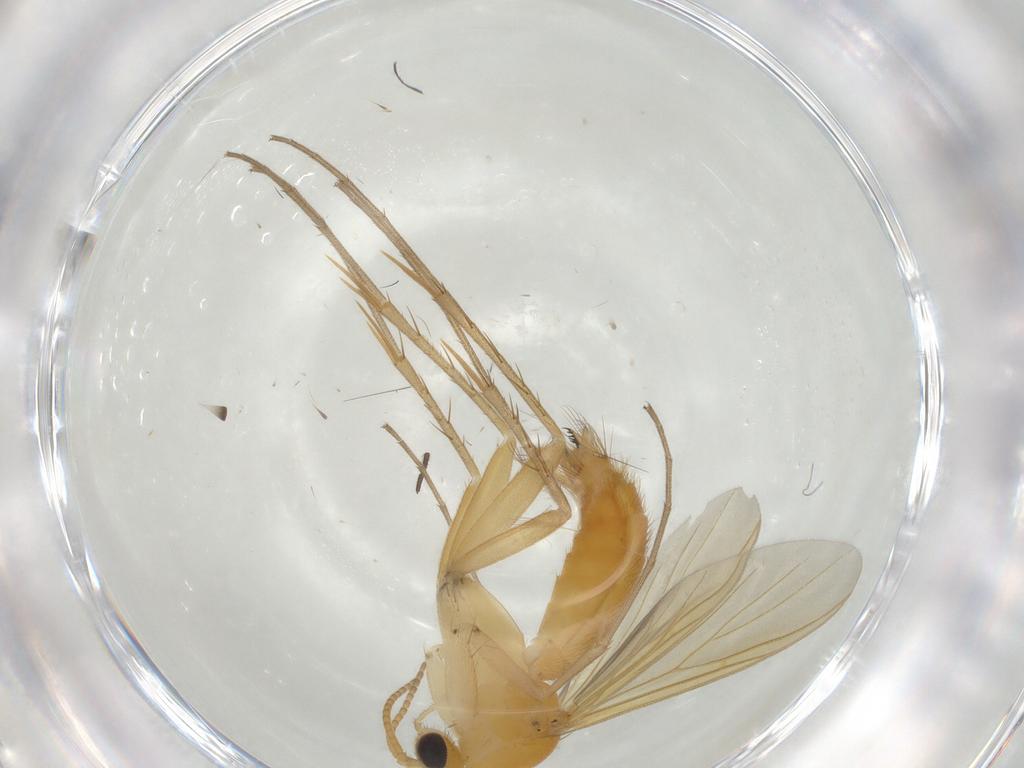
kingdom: Animalia
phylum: Arthropoda
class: Insecta
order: Diptera
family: Mycetophilidae
